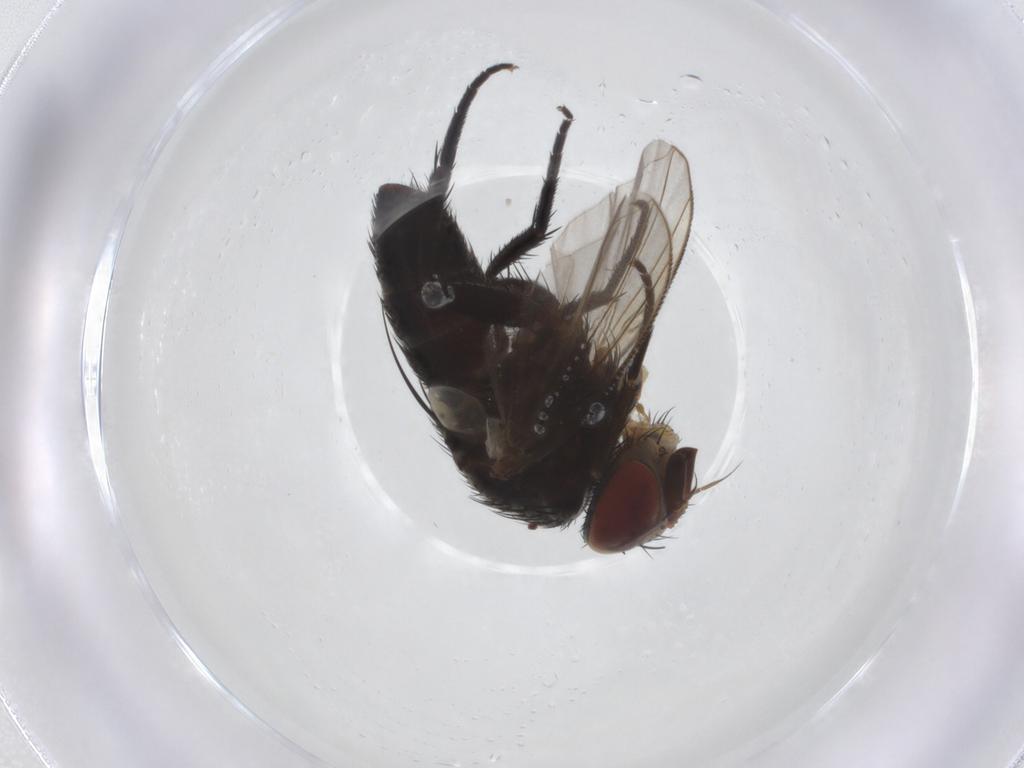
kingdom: Animalia
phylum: Arthropoda
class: Insecta
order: Diptera
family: Tachinidae
